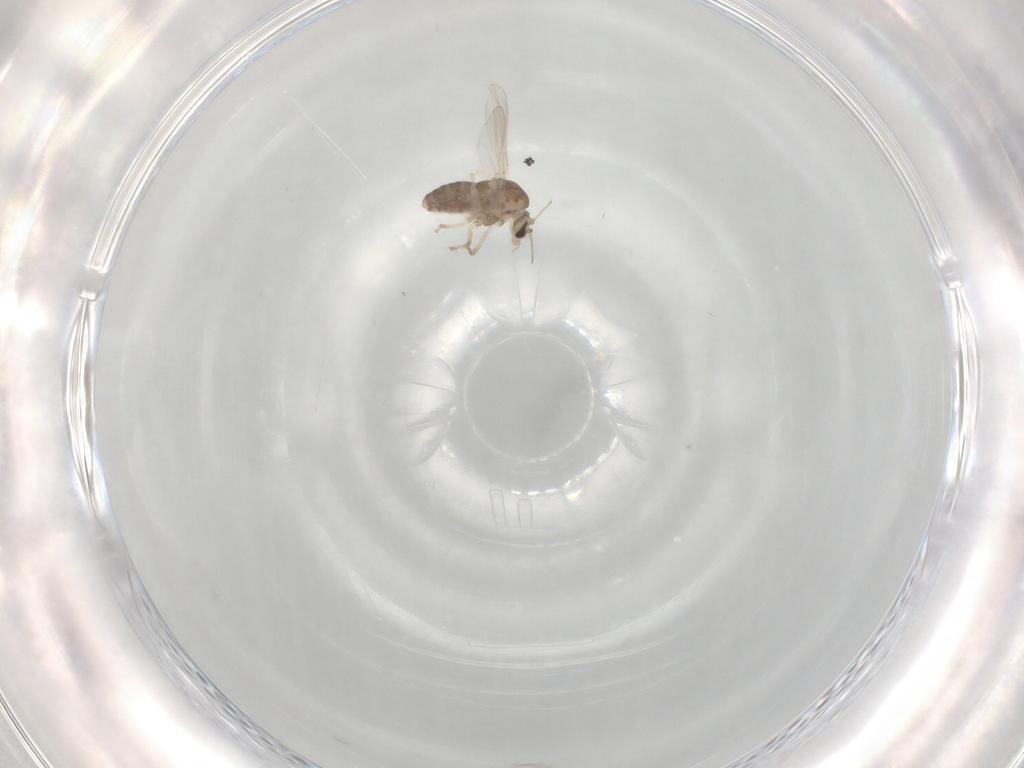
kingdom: Animalia
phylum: Arthropoda
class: Insecta
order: Diptera
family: Chironomidae
